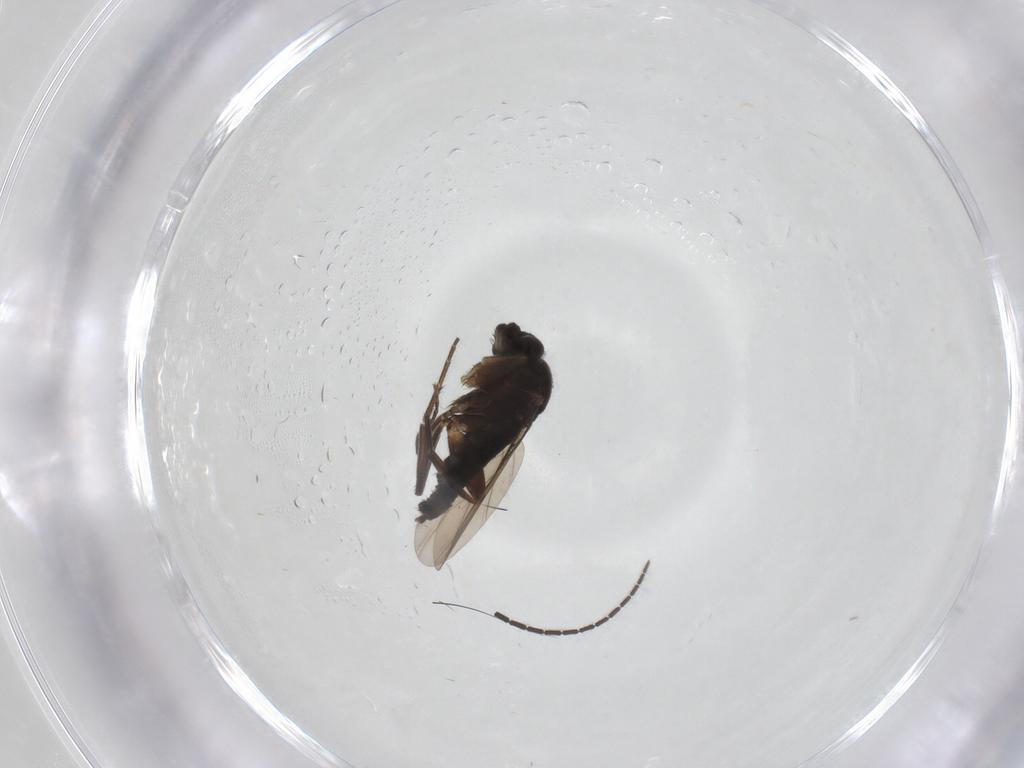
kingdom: Animalia
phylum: Arthropoda
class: Insecta
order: Diptera
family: Phoridae
